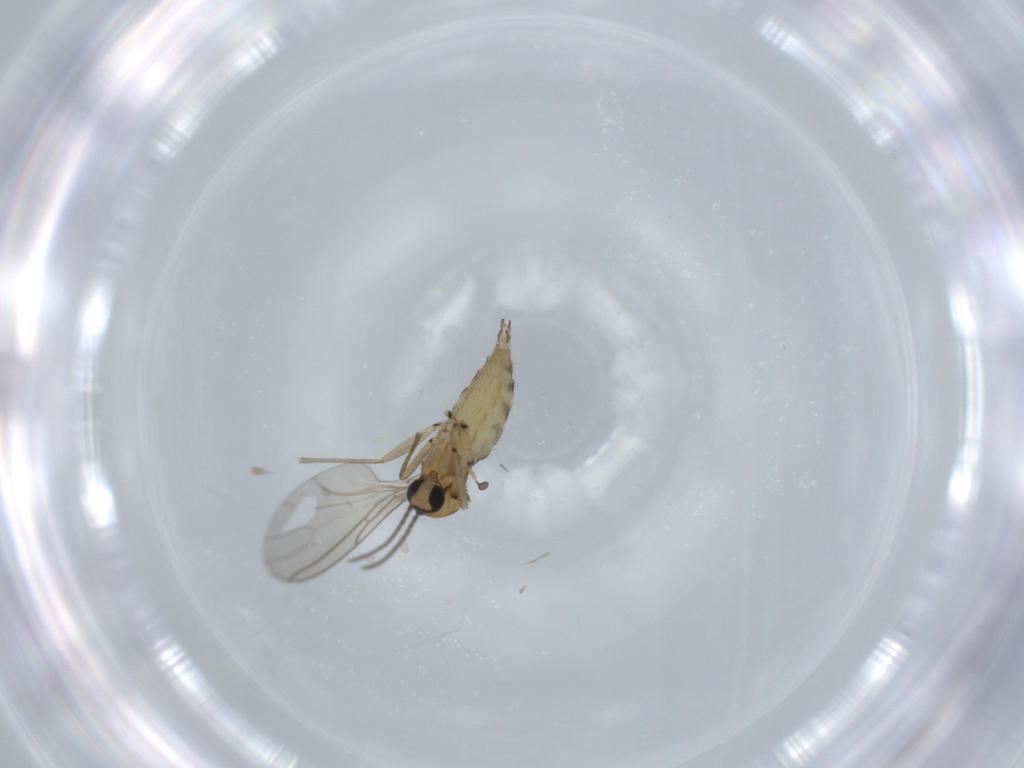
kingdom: Animalia
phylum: Arthropoda
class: Insecta
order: Diptera
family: Sciaridae
